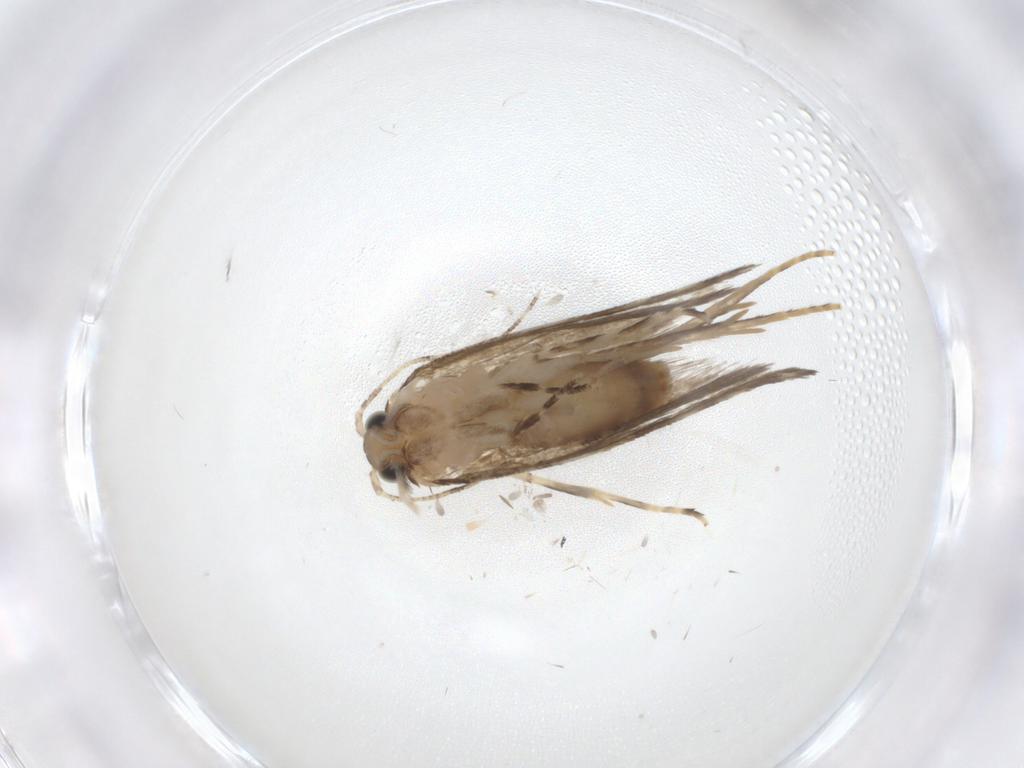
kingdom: Animalia
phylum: Arthropoda
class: Insecta
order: Lepidoptera
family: Tineidae
